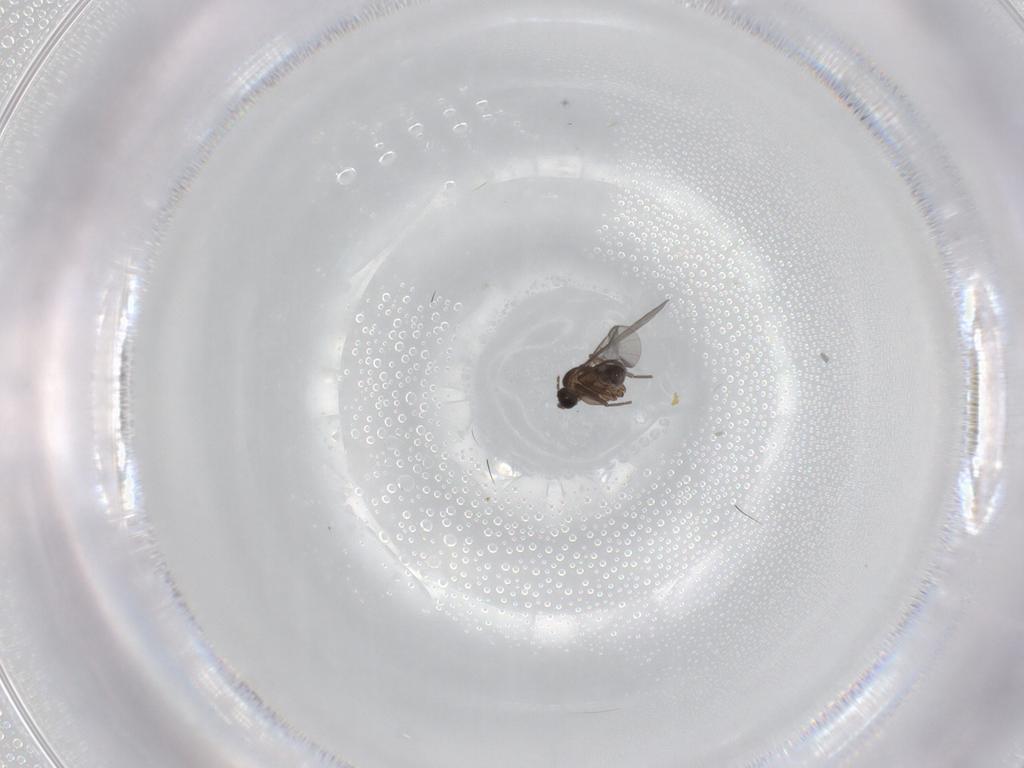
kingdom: Animalia
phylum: Arthropoda
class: Insecta
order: Diptera
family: Sciaridae
